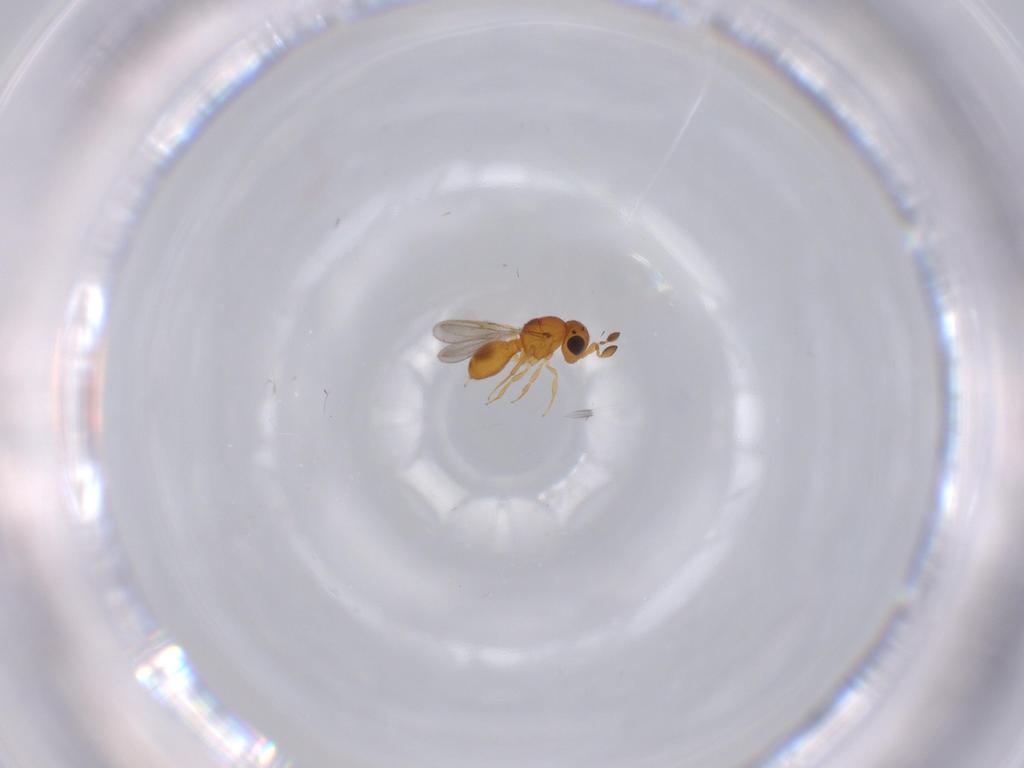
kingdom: Animalia
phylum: Arthropoda
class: Insecta
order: Hymenoptera
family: Scelionidae
